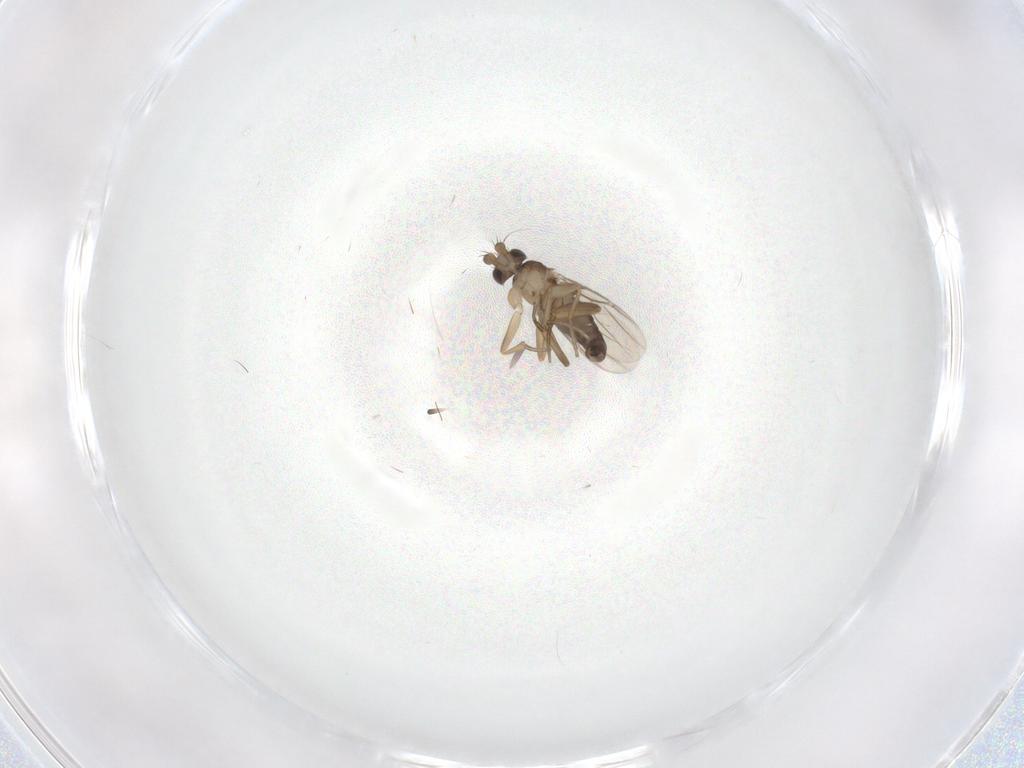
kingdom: Animalia
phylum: Arthropoda
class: Insecta
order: Diptera
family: Phoridae
